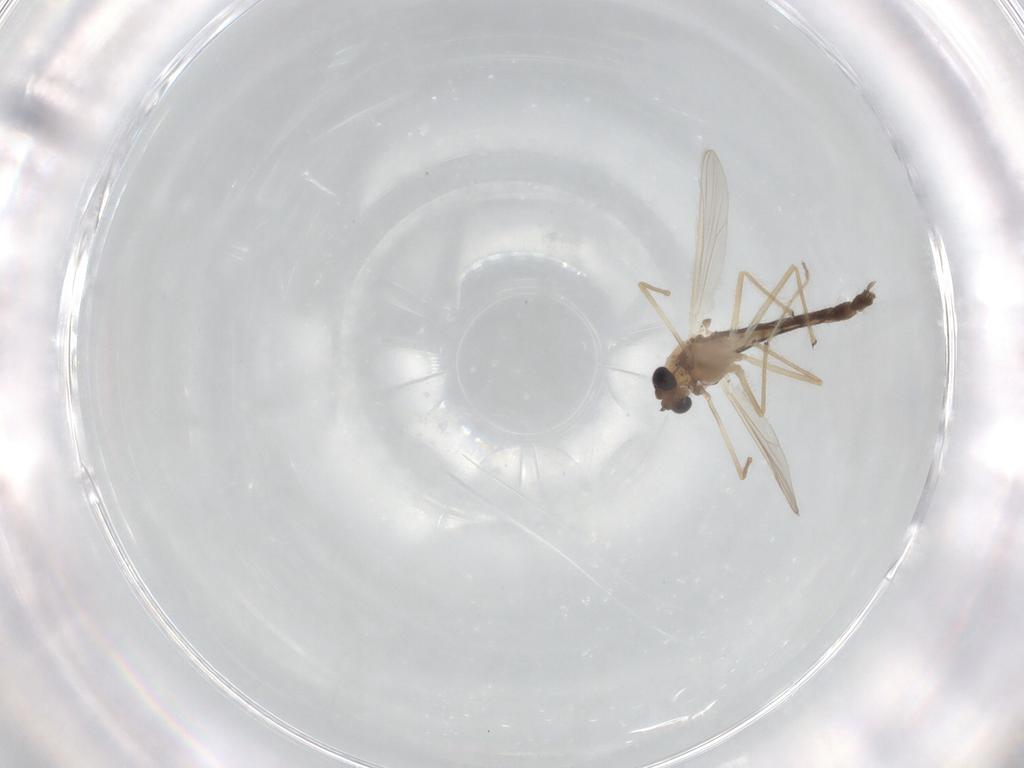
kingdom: Animalia
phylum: Arthropoda
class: Insecta
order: Diptera
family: Chironomidae
